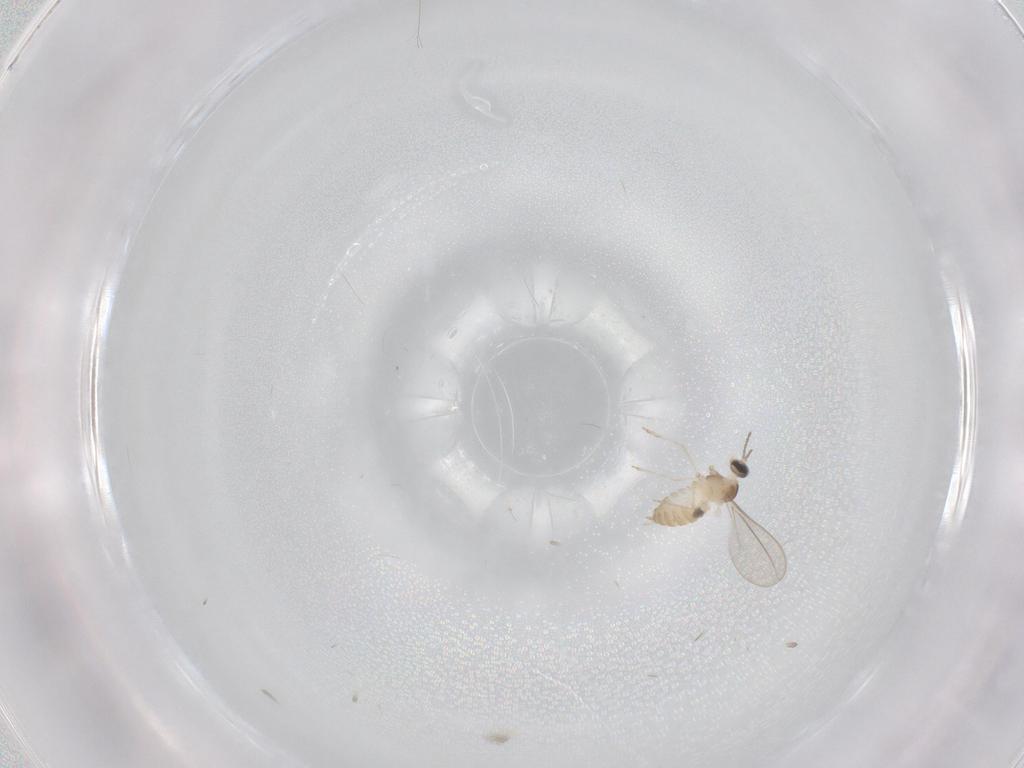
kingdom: Animalia
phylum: Arthropoda
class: Insecta
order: Diptera
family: Cecidomyiidae
